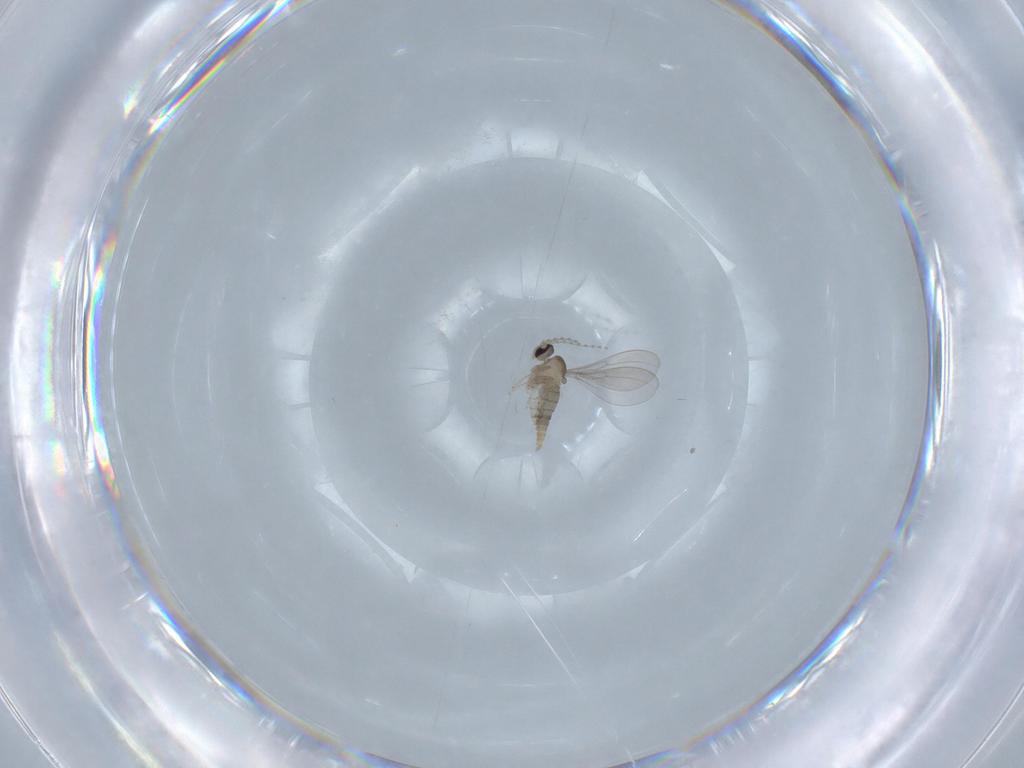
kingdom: Animalia
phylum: Arthropoda
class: Insecta
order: Diptera
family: Cecidomyiidae
